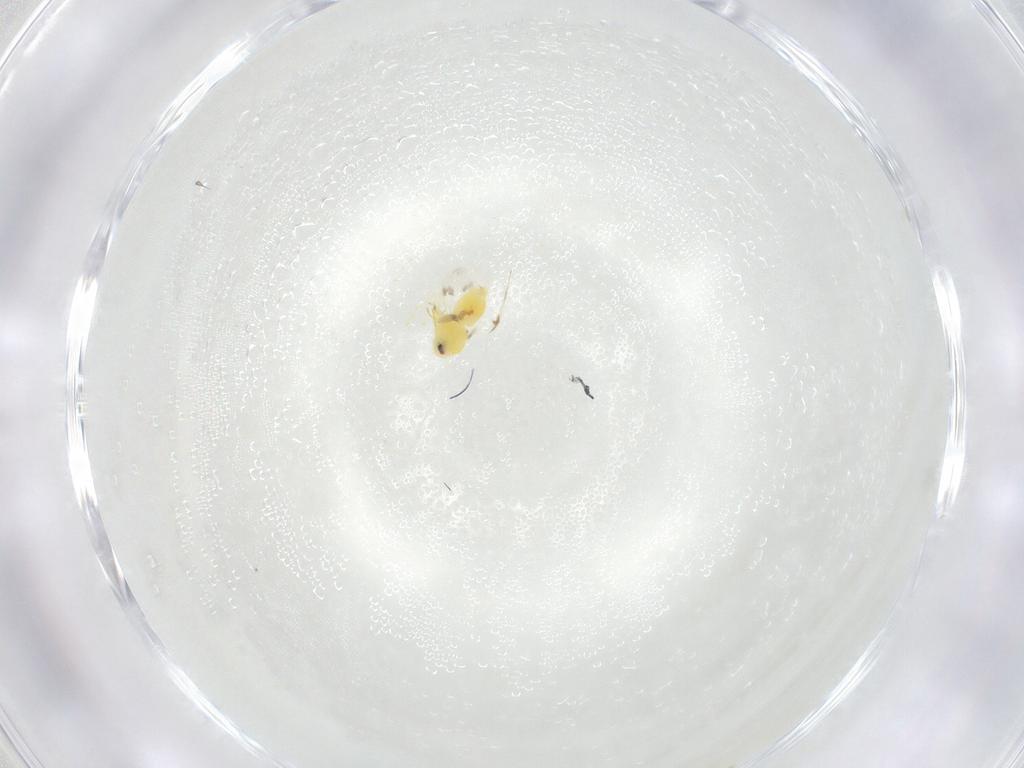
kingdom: Animalia
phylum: Arthropoda
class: Insecta
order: Hemiptera
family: Aleyrodidae
